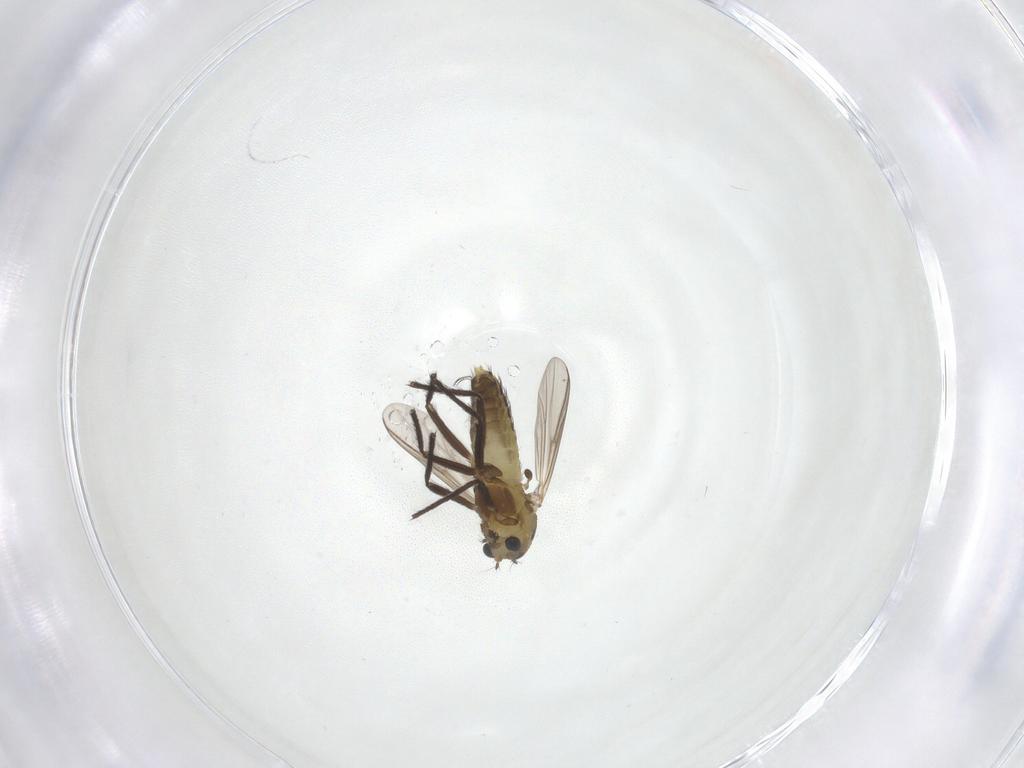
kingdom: Animalia
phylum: Arthropoda
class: Insecta
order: Diptera
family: Chironomidae
